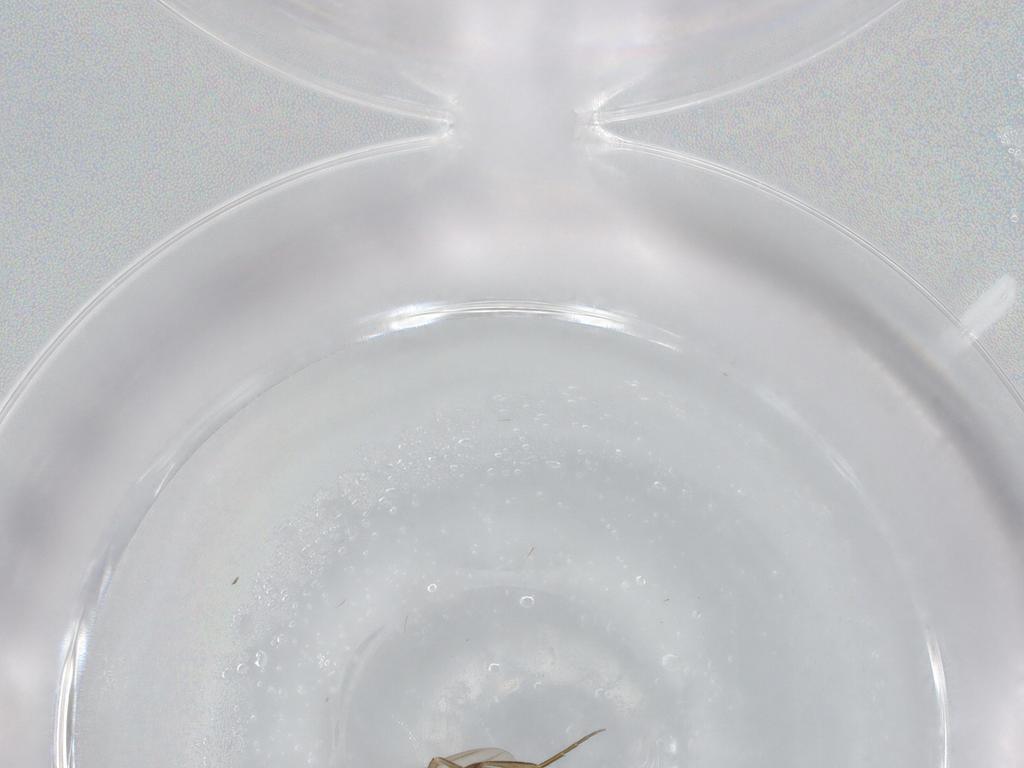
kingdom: Animalia
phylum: Arthropoda
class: Insecta
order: Diptera
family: Phoridae
